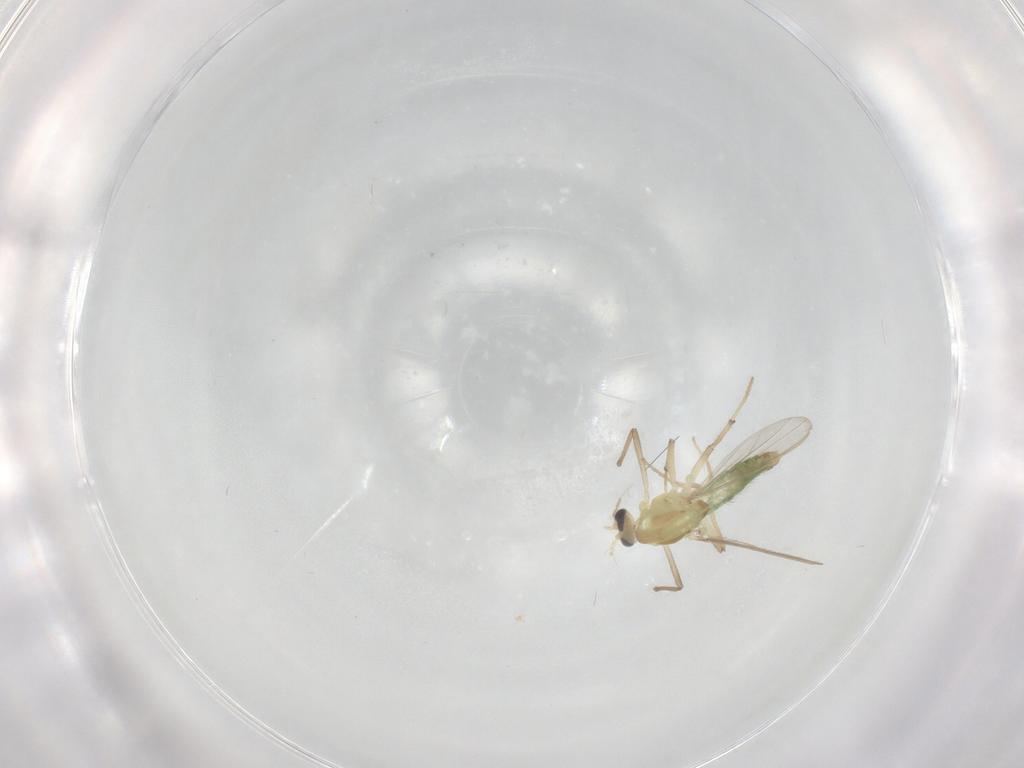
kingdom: Animalia
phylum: Arthropoda
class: Insecta
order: Diptera
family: Chironomidae
